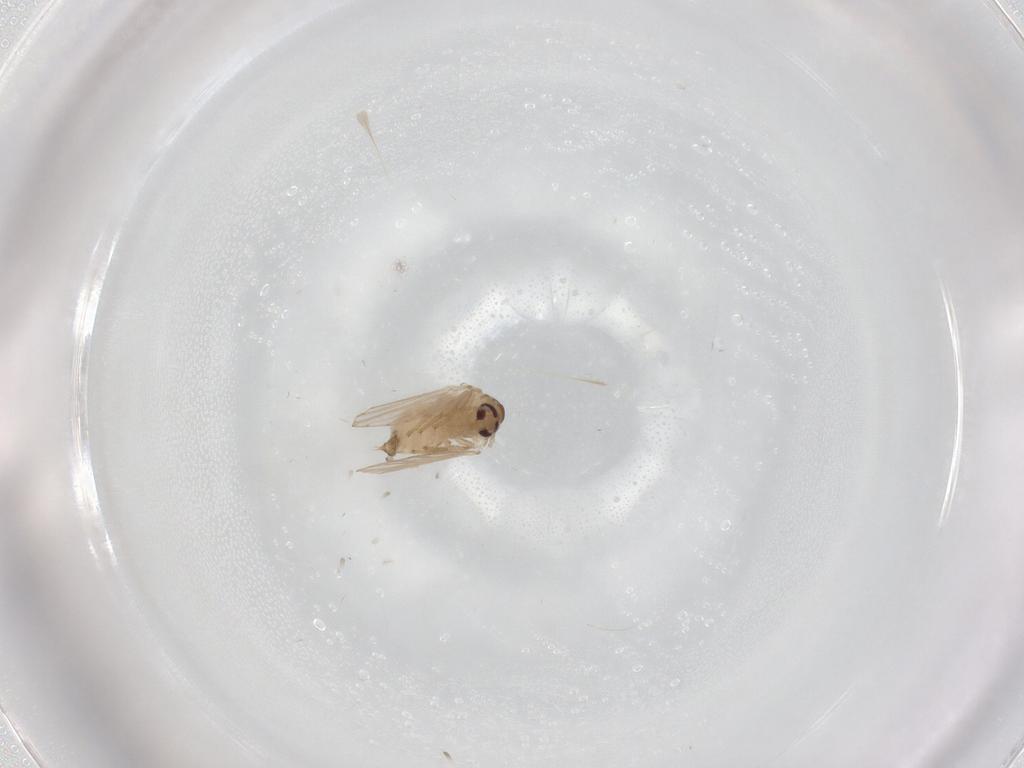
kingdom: Animalia
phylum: Arthropoda
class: Insecta
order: Diptera
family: Psychodidae
